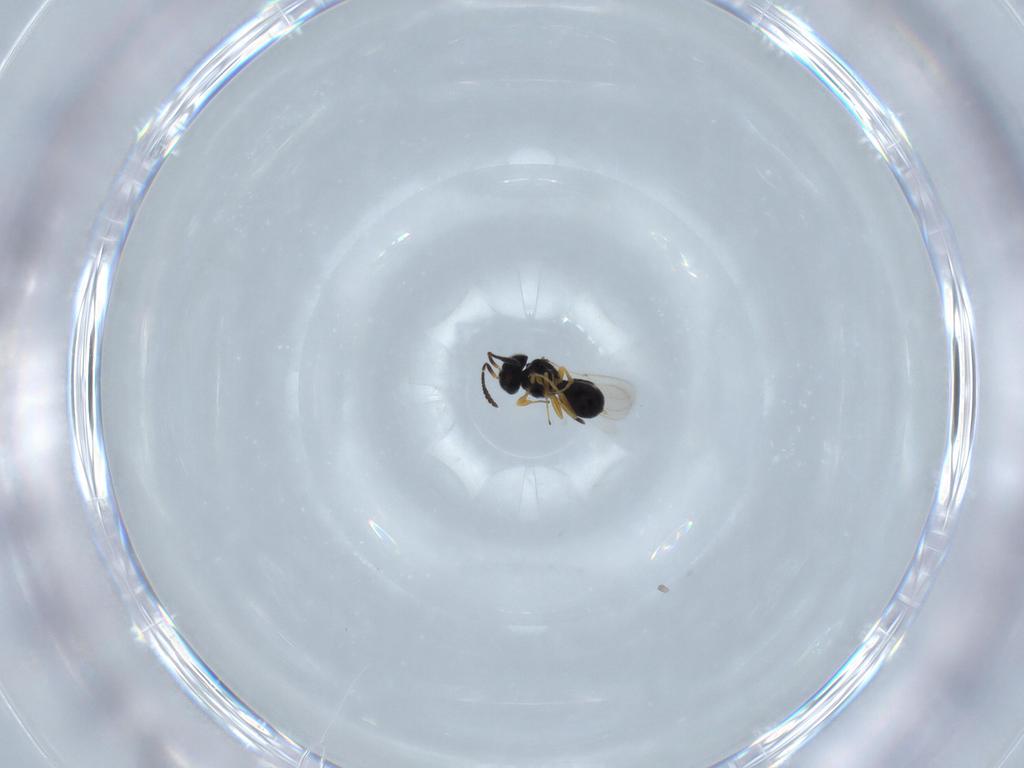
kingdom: Animalia
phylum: Arthropoda
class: Insecta
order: Hymenoptera
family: Scelionidae
